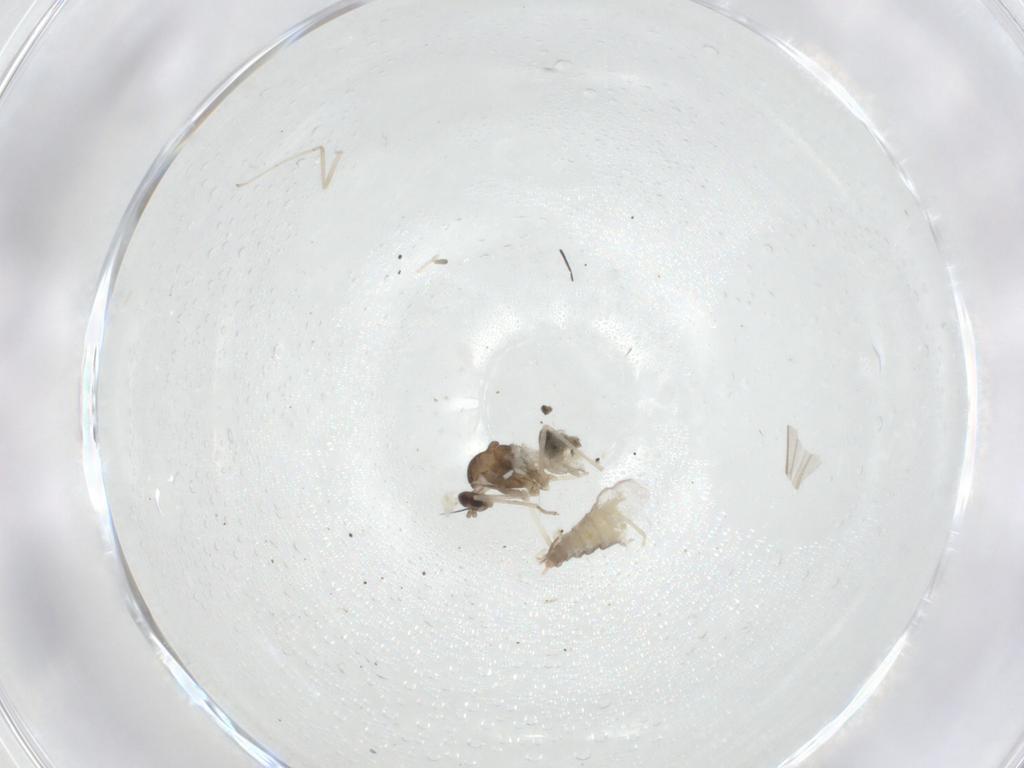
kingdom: Animalia
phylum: Arthropoda
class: Insecta
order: Diptera
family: Cecidomyiidae
